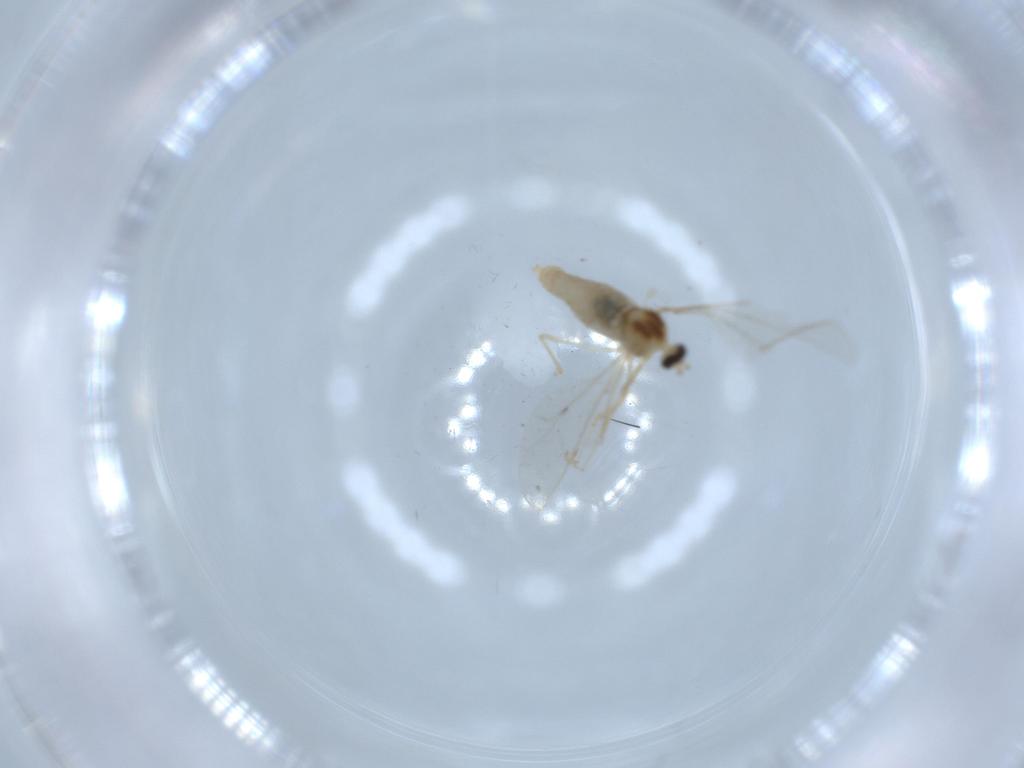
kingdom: Animalia
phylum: Arthropoda
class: Insecta
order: Diptera
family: Cecidomyiidae
